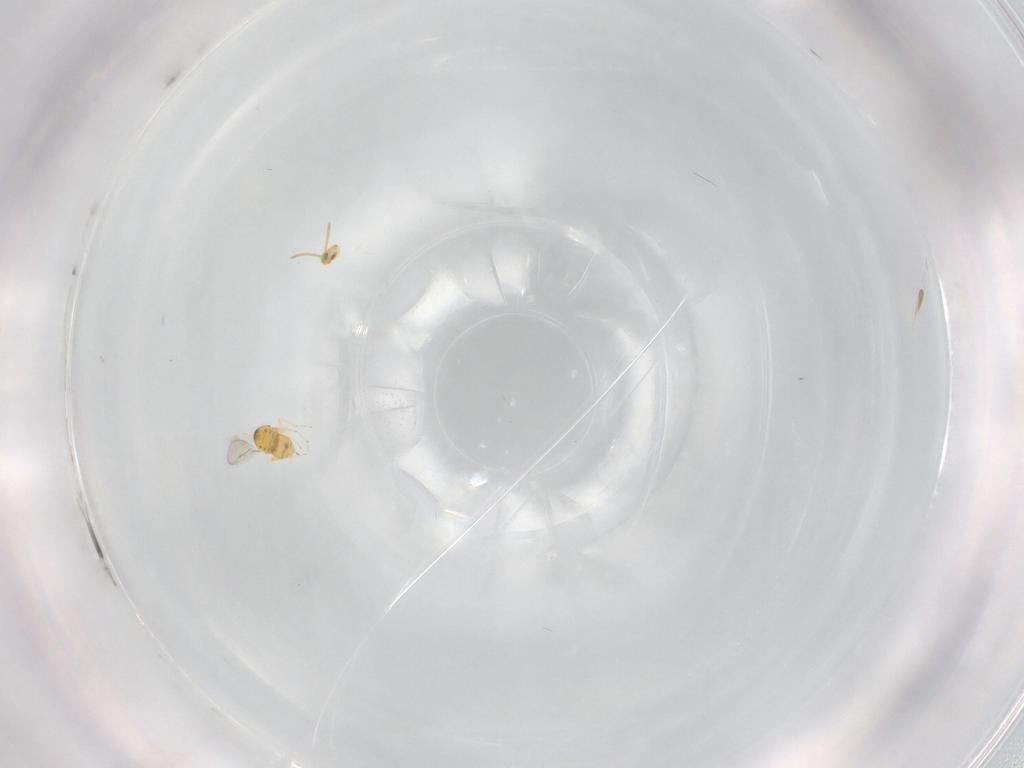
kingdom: Animalia
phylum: Arthropoda
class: Insecta
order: Hymenoptera
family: Aphelinidae
